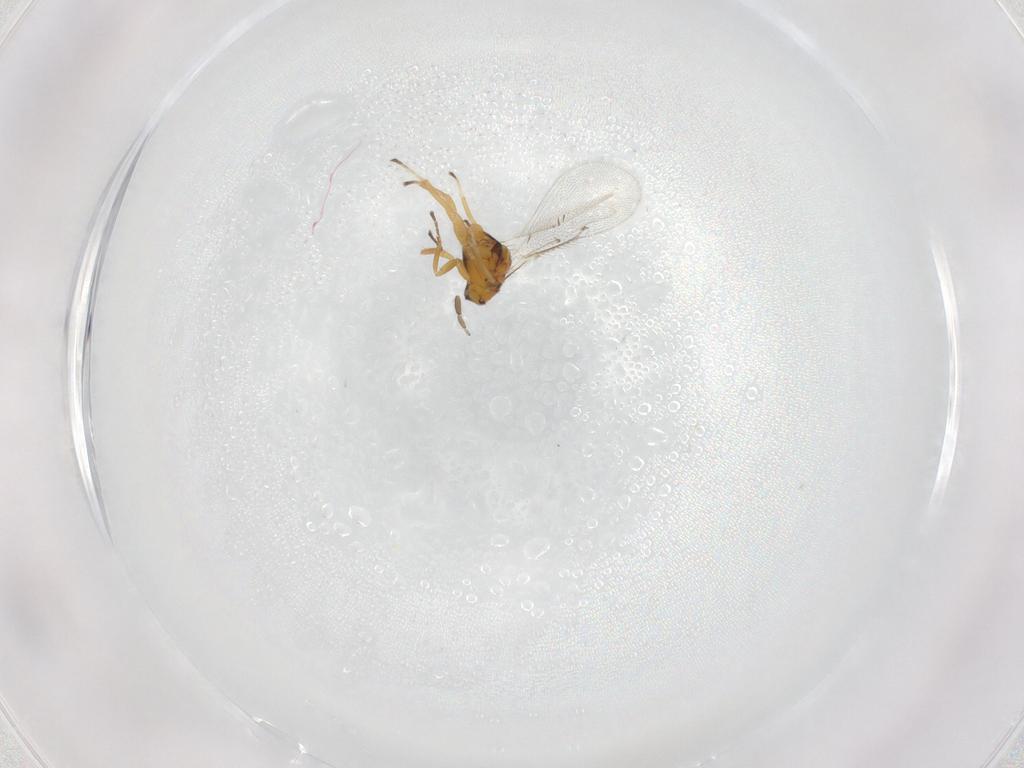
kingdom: Animalia
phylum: Arthropoda
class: Insecta
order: Hymenoptera
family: Eulophidae
